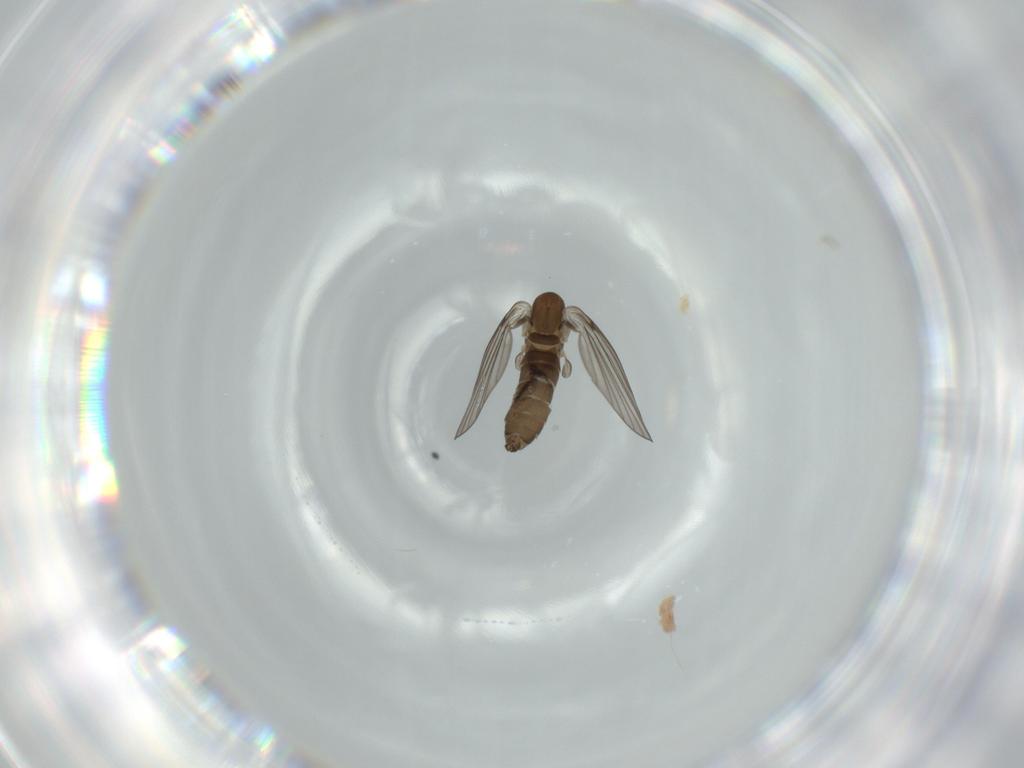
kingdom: Animalia
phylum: Arthropoda
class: Insecta
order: Diptera
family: Psychodidae
